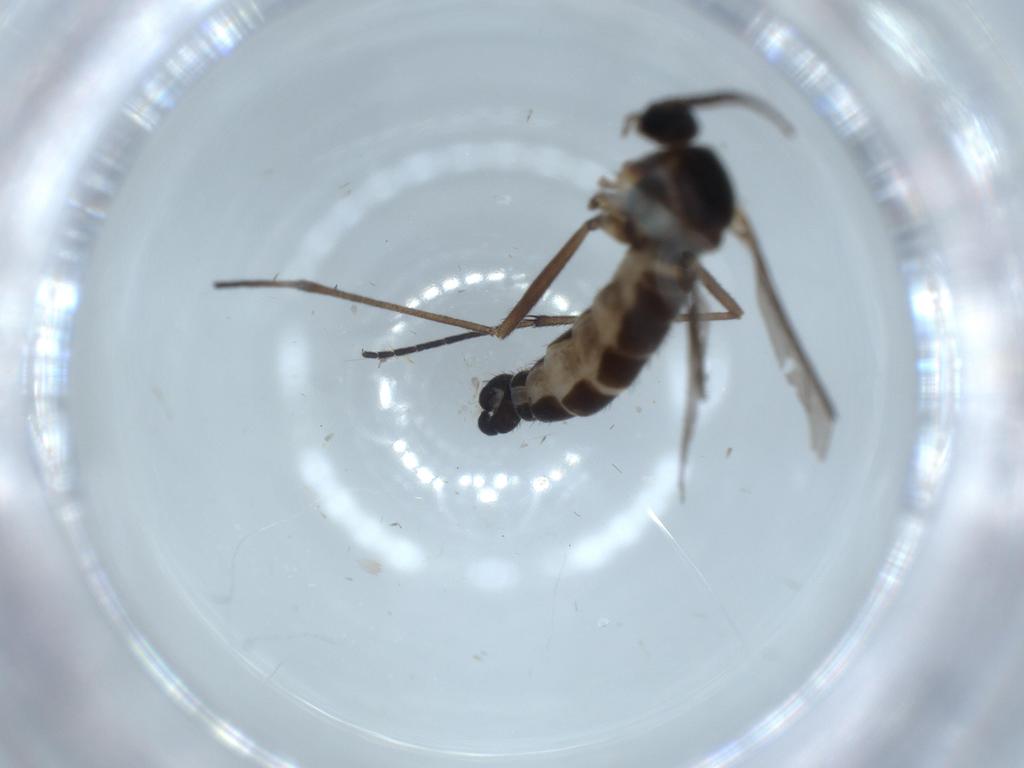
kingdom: Animalia
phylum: Arthropoda
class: Insecta
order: Diptera
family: Sciaridae
